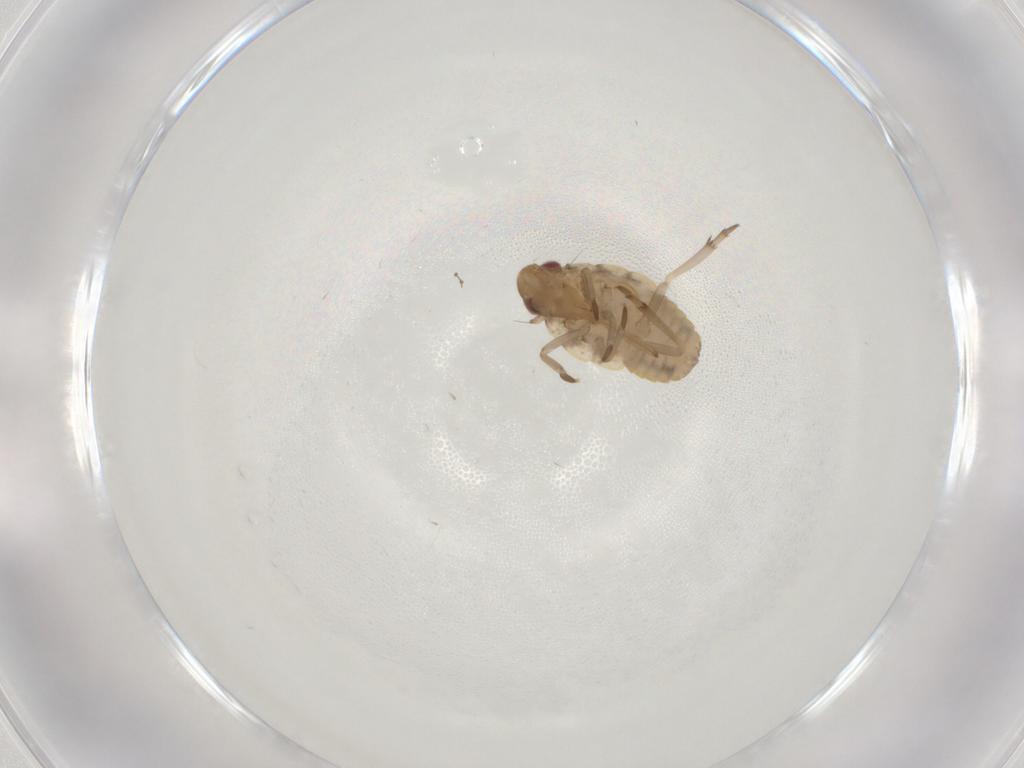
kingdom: Animalia
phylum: Arthropoda
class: Insecta
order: Hemiptera
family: Flatidae
